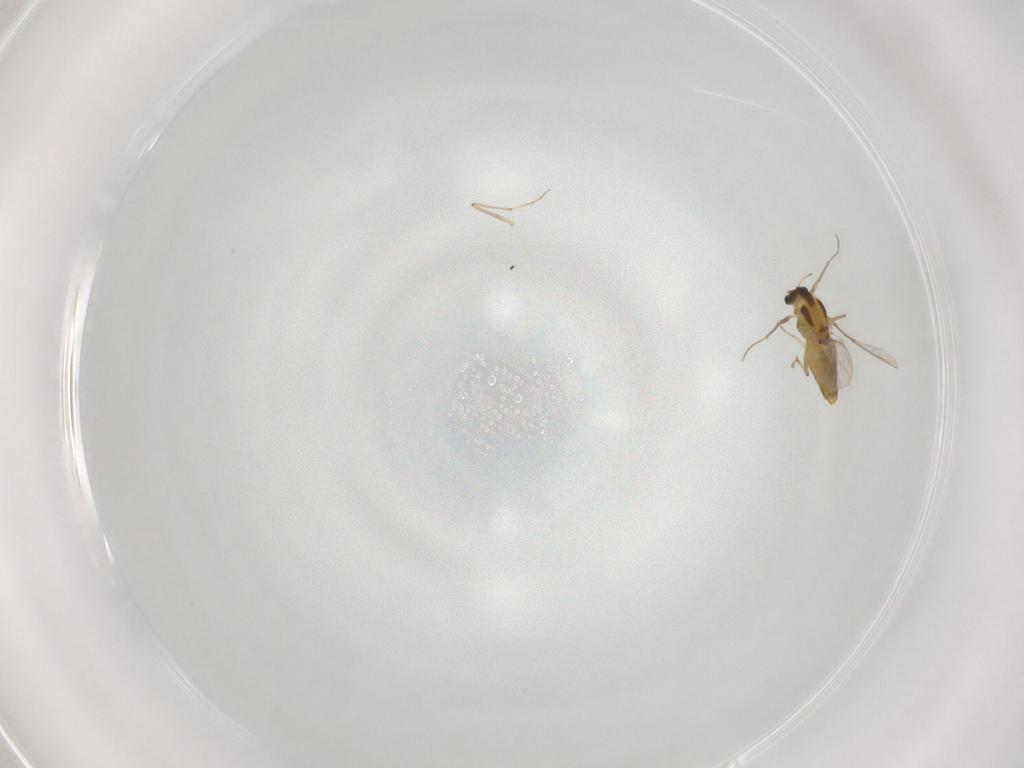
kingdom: Animalia
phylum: Arthropoda
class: Insecta
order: Diptera
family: Chironomidae
